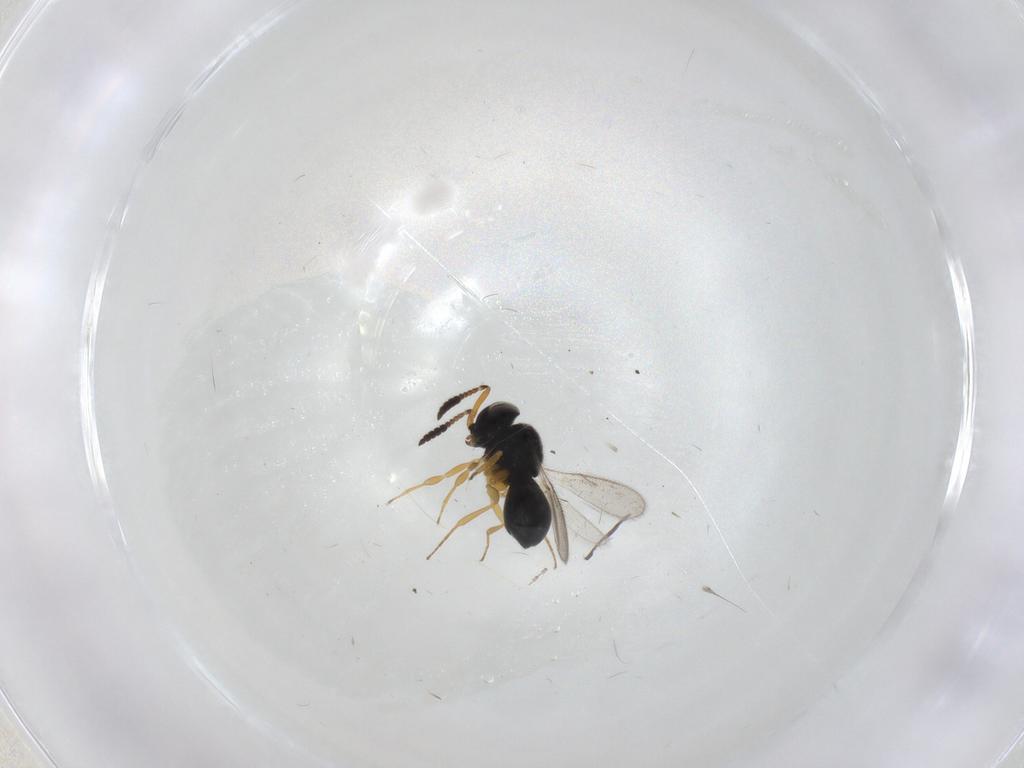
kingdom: Animalia
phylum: Arthropoda
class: Insecta
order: Hymenoptera
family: Scelionidae
